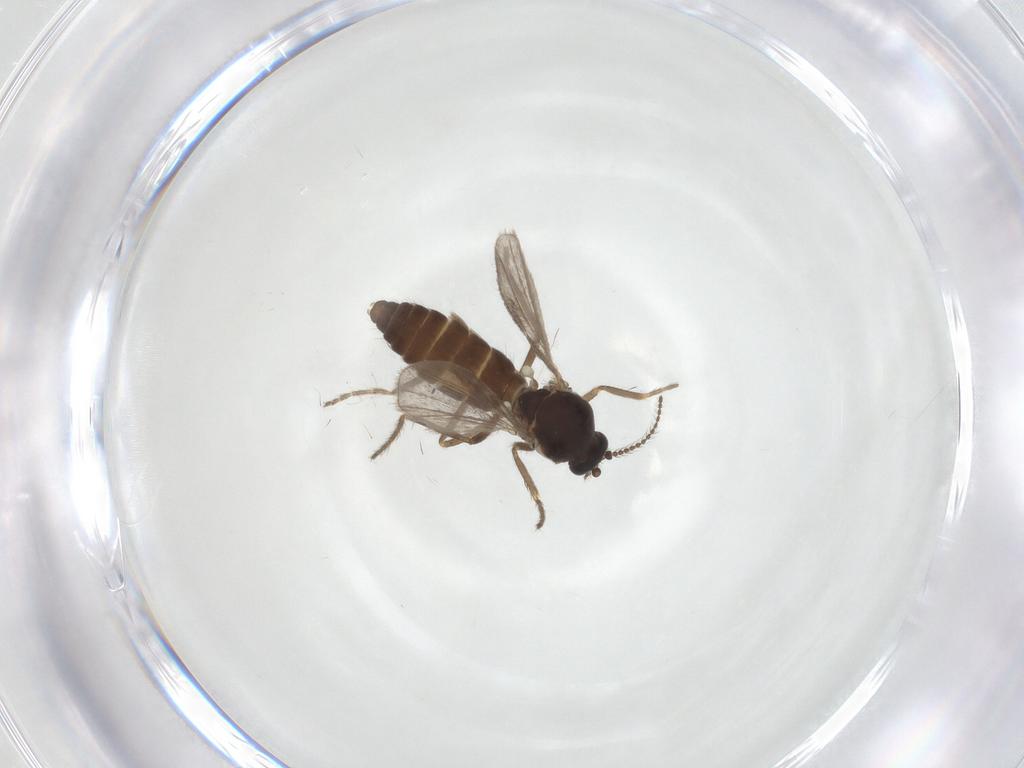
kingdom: Animalia
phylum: Arthropoda
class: Insecta
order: Diptera
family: Ceratopogonidae
